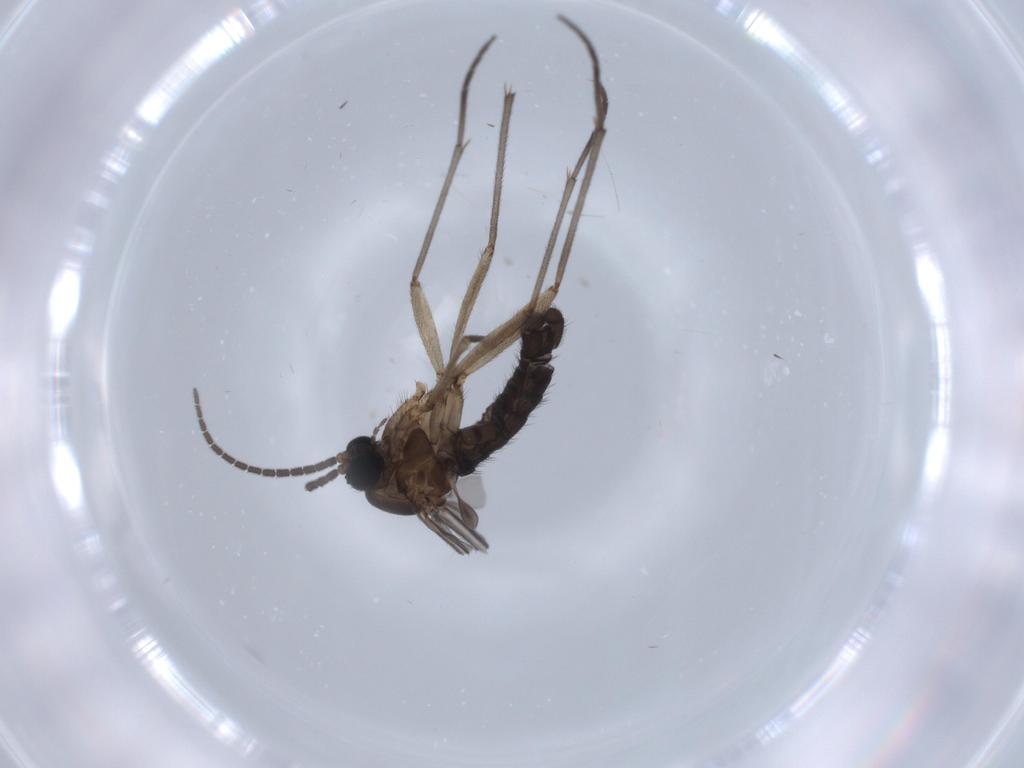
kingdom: Animalia
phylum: Arthropoda
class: Insecta
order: Diptera
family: Sciaridae
